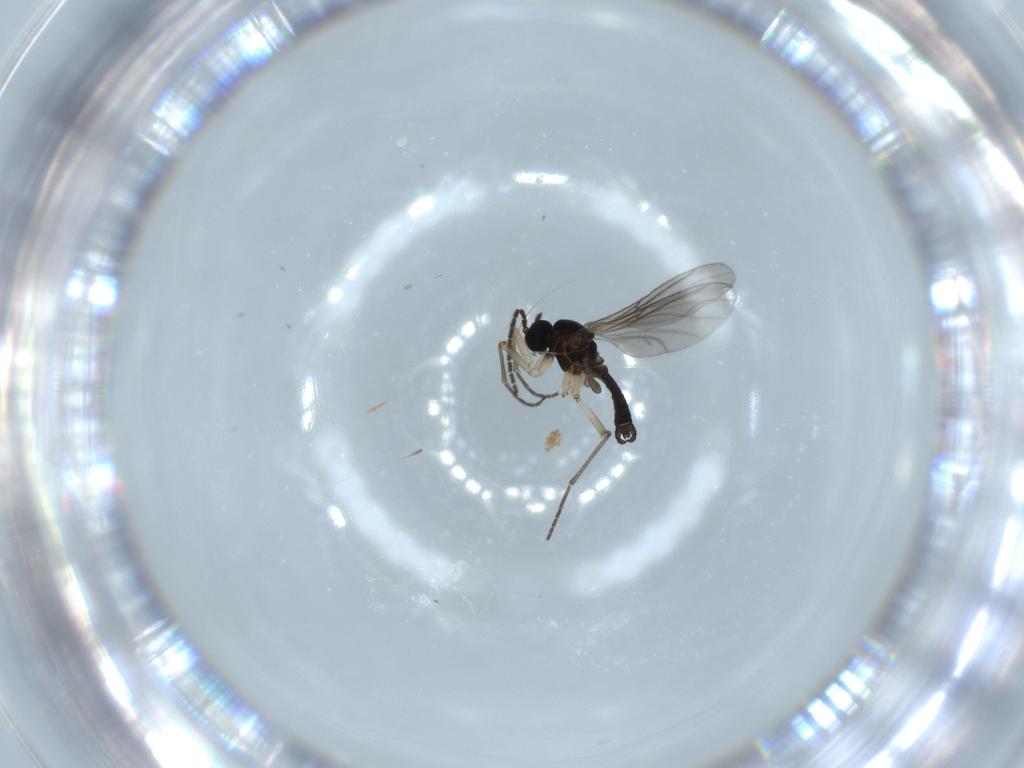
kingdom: Animalia
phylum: Arthropoda
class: Insecta
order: Diptera
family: Sciaridae
